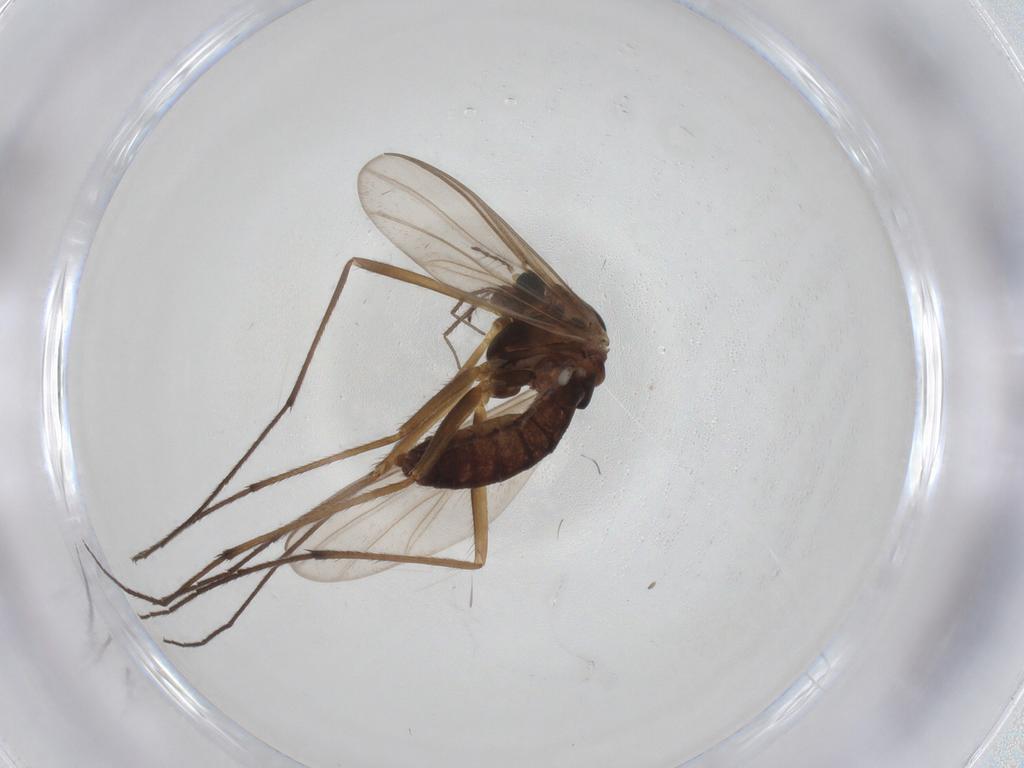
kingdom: Animalia
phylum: Arthropoda
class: Insecta
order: Diptera
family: Chironomidae
